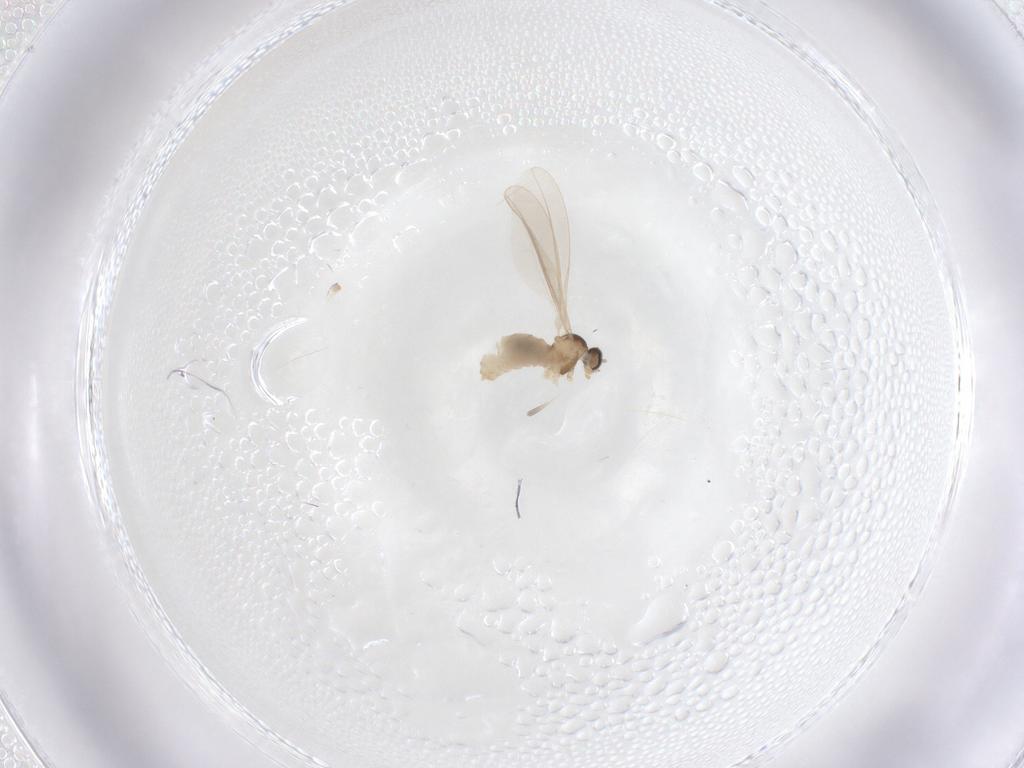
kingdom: Animalia
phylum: Arthropoda
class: Insecta
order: Diptera
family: Cecidomyiidae
